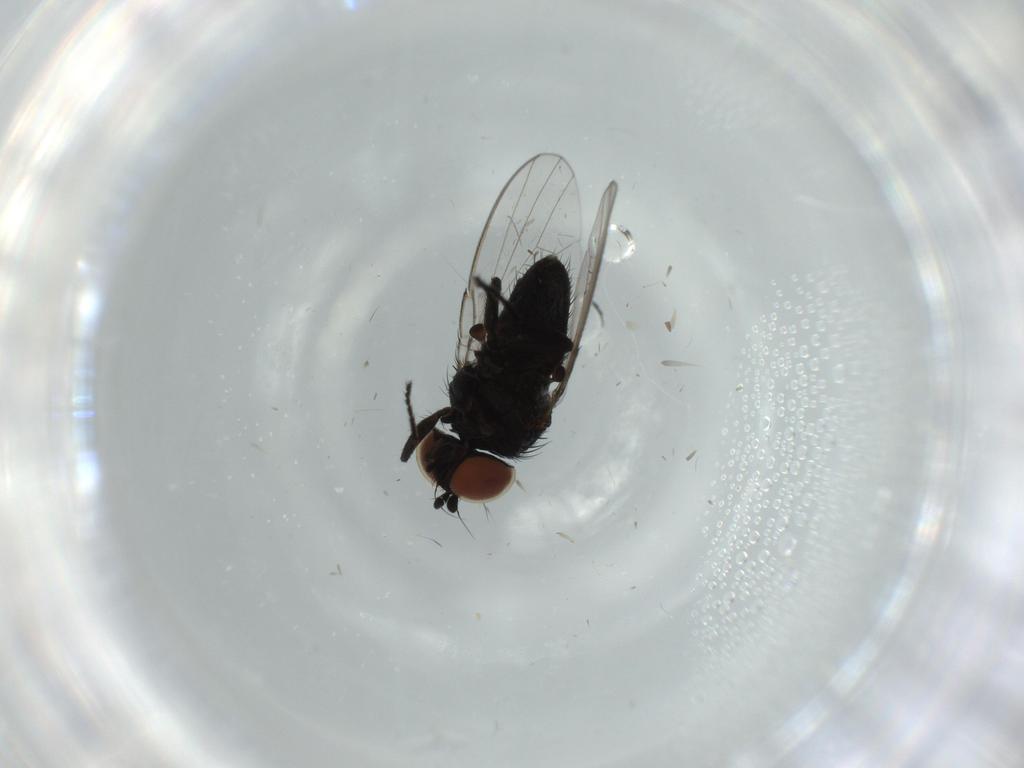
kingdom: Animalia
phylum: Arthropoda
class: Insecta
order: Diptera
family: Milichiidae
